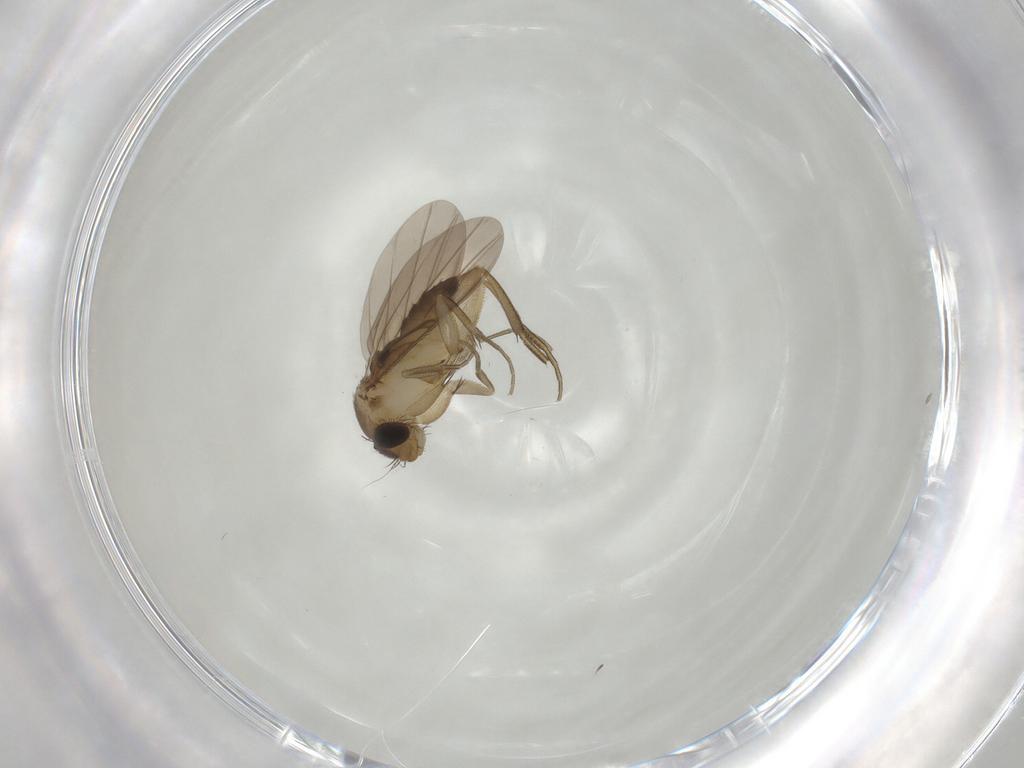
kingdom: Animalia
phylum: Arthropoda
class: Insecta
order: Diptera
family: Phoridae
